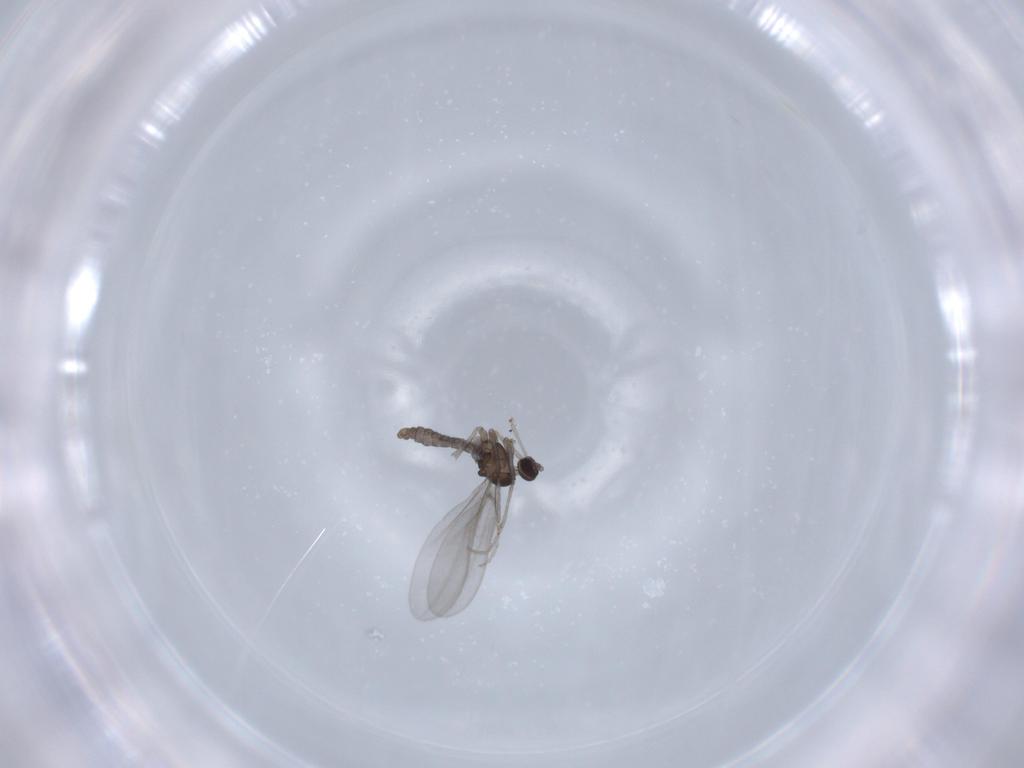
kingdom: Animalia
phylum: Arthropoda
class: Insecta
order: Diptera
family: Cecidomyiidae
